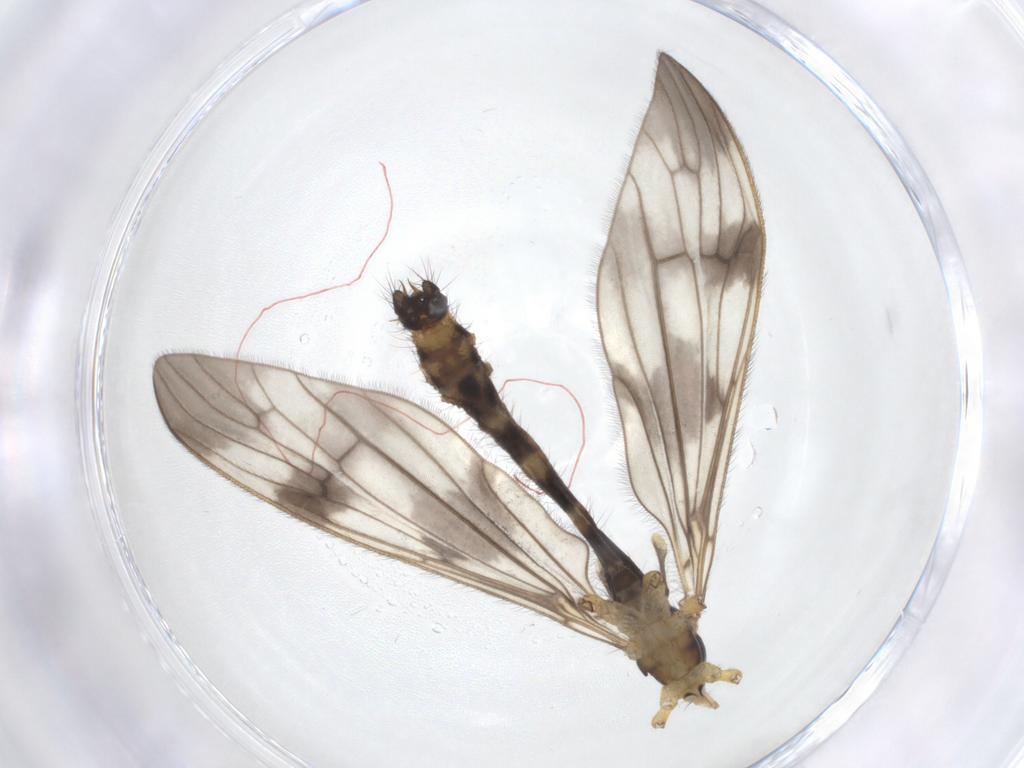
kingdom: Animalia
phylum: Arthropoda
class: Insecta
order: Diptera
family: Limoniidae
